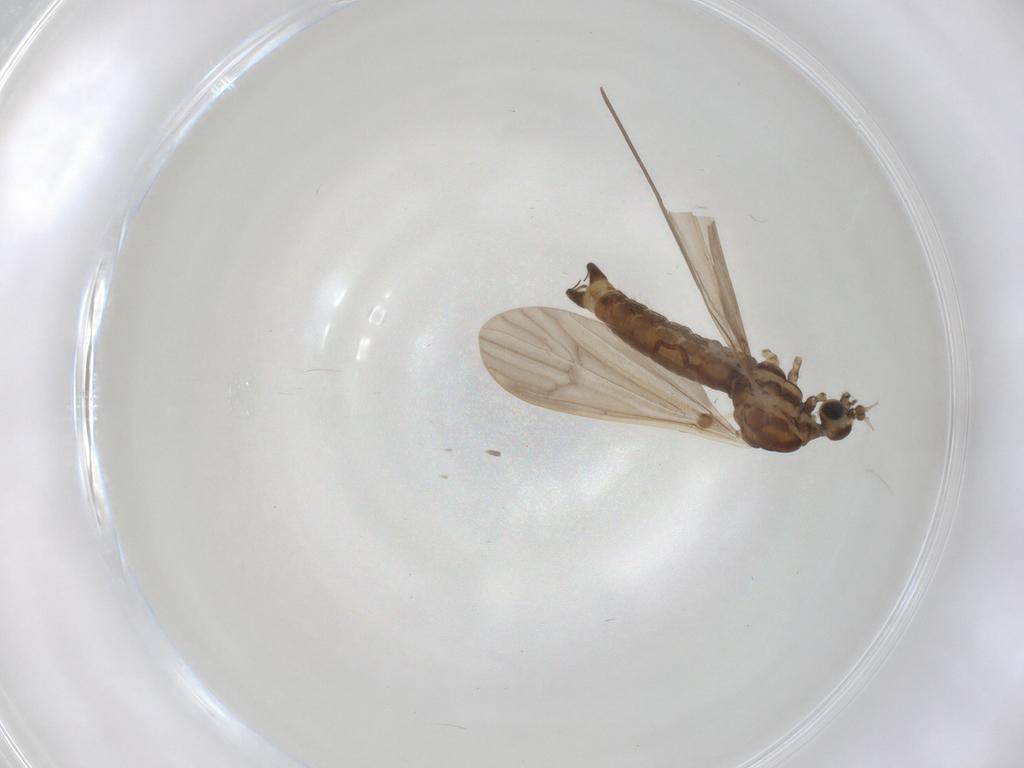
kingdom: Animalia
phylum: Arthropoda
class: Insecta
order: Diptera
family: Limoniidae
